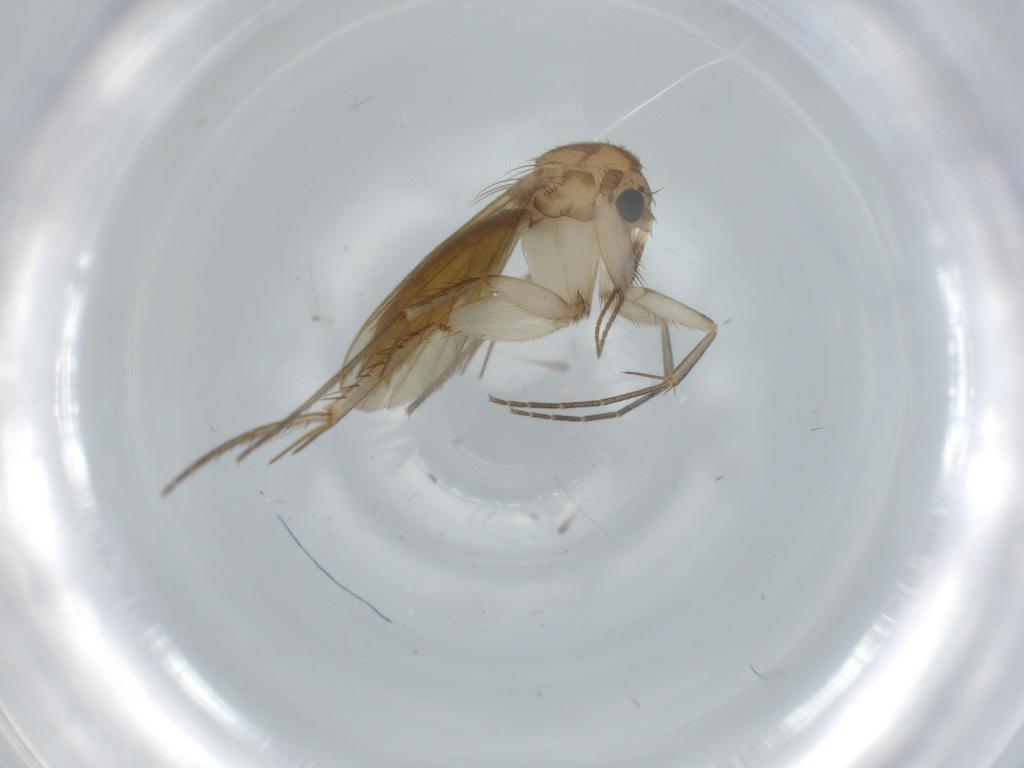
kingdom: Animalia
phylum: Arthropoda
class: Insecta
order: Diptera
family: Mycetophilidae
